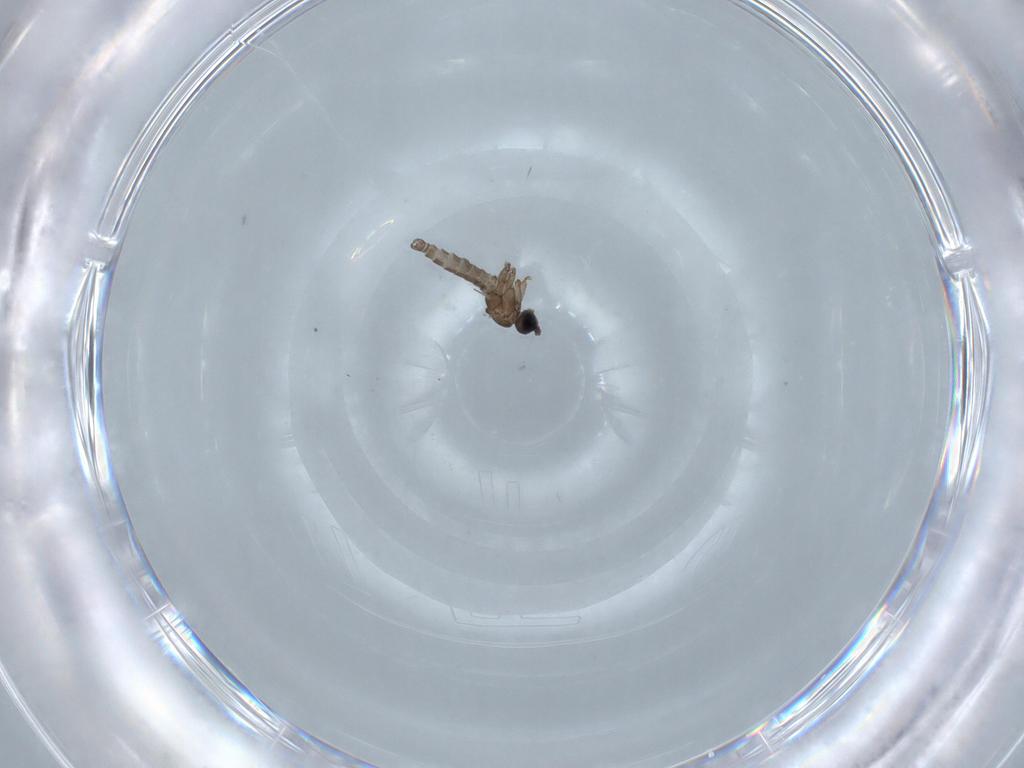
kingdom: Animalia
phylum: Arthropoda
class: Insecta
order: Diptera
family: Sciaridae
